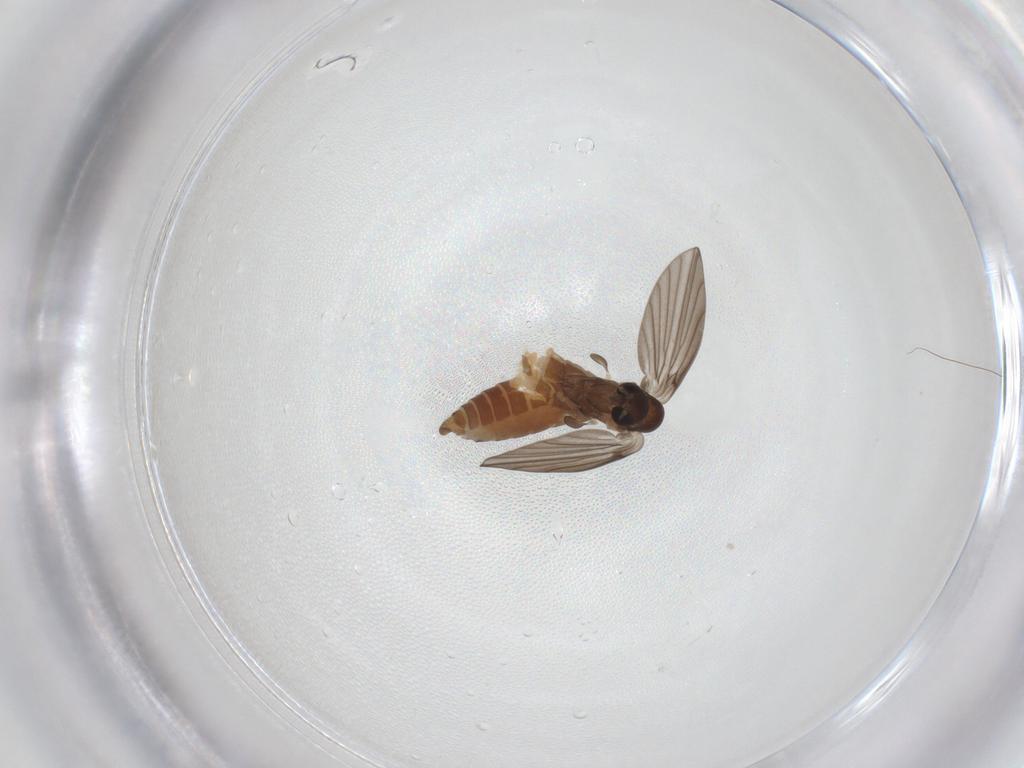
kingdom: Animalia
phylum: Arthropoda
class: Insecta
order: Diptera
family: Psychodidae
